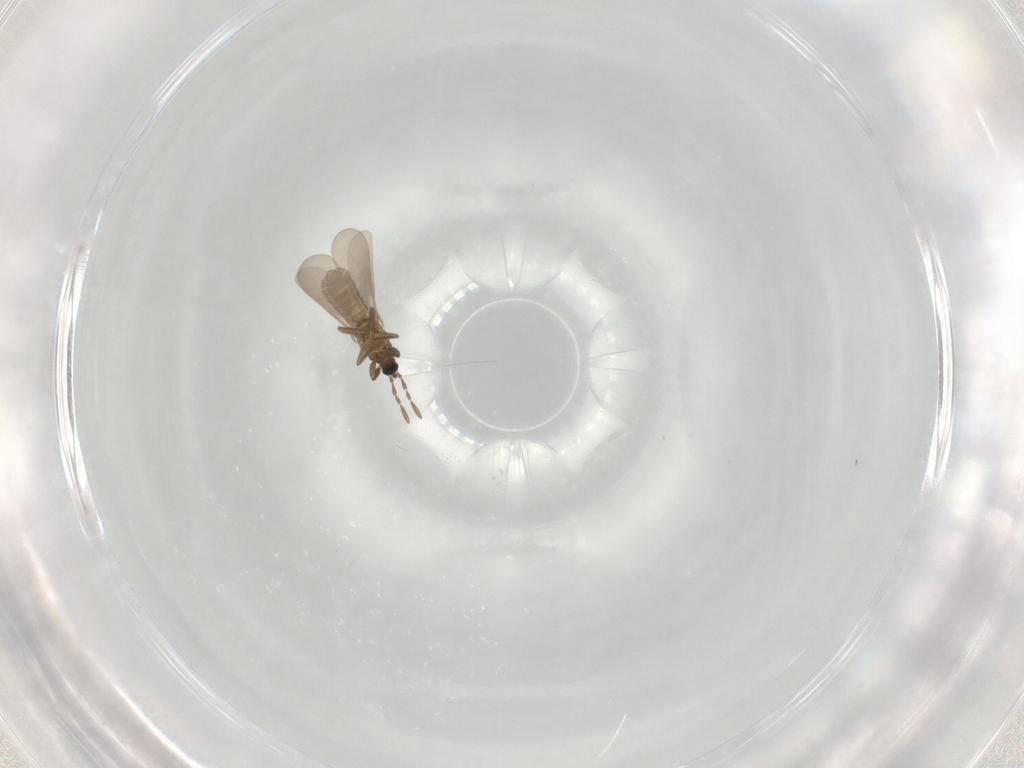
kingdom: Animalia
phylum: Arthropoda
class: Insecta
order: Hemiptera
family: Enicocephalidae
